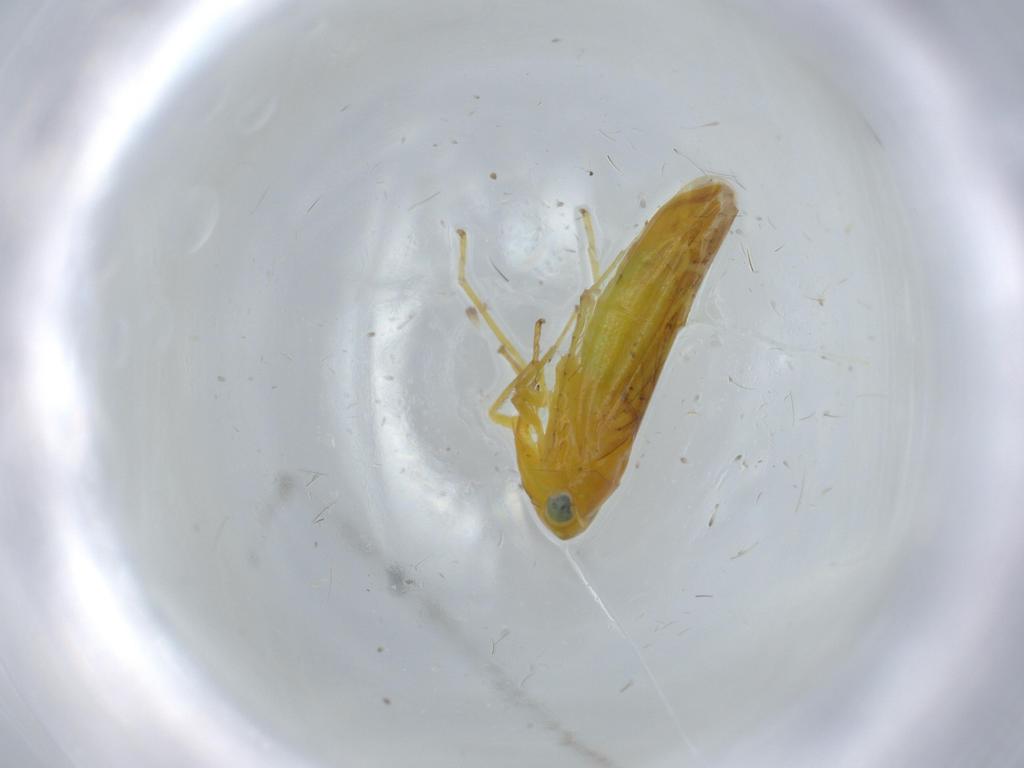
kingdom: Animalia
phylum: Arthropoda
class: Insecta
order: Hemiptera
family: Cicadellidae
